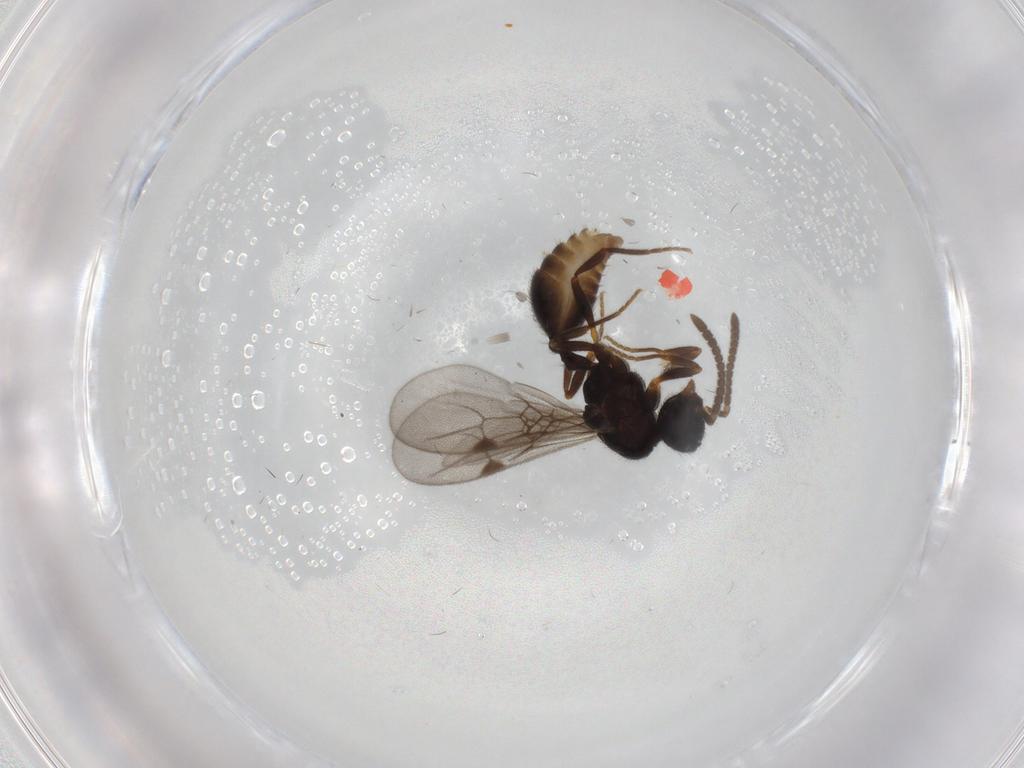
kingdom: Animalia
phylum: Arthropoda
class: Insecta
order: Hymenoptera
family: Formicidae
